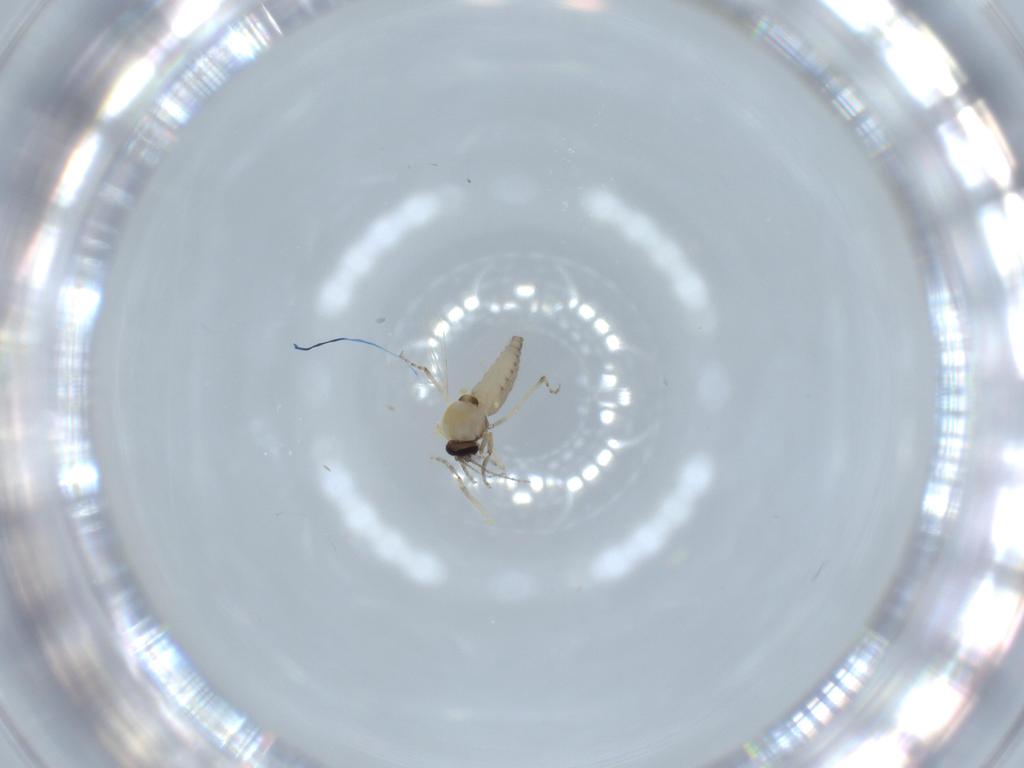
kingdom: Animalia
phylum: Arthropoda
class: Insecta
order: Diptera
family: Ceratopogonidae
